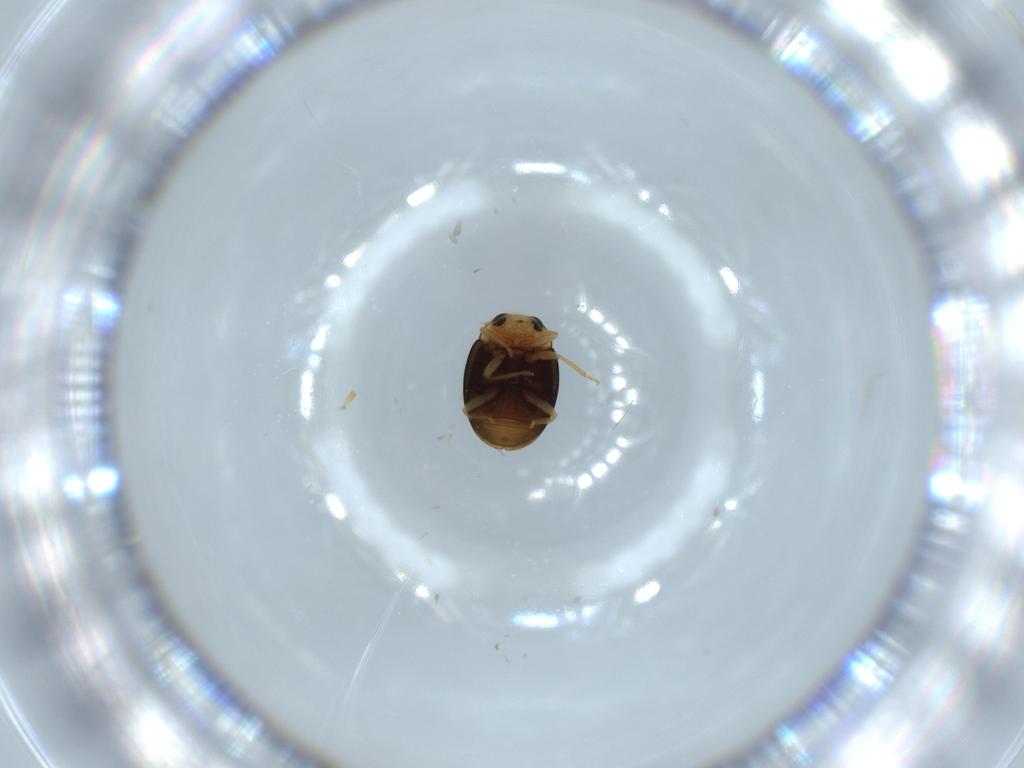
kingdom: Animalia
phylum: Arthropoda
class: Insecta
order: Coleoptera
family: Coccinellidae
